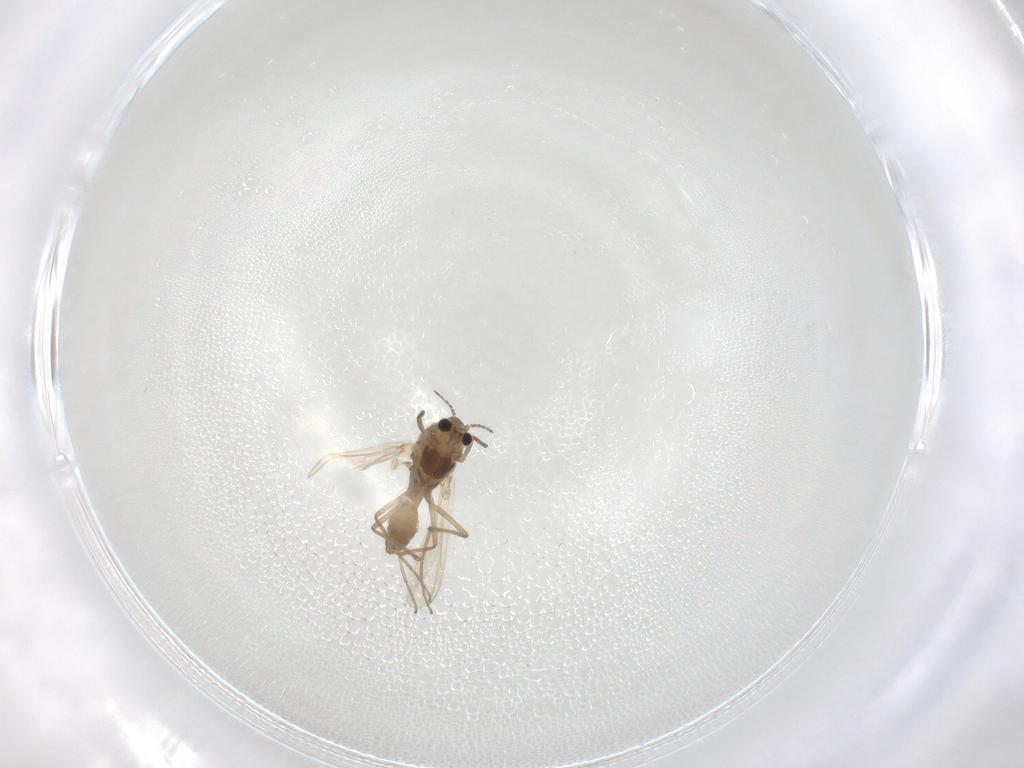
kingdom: Animalia
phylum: Arthropoda
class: Insecta
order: Diptera
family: Chironomidae
